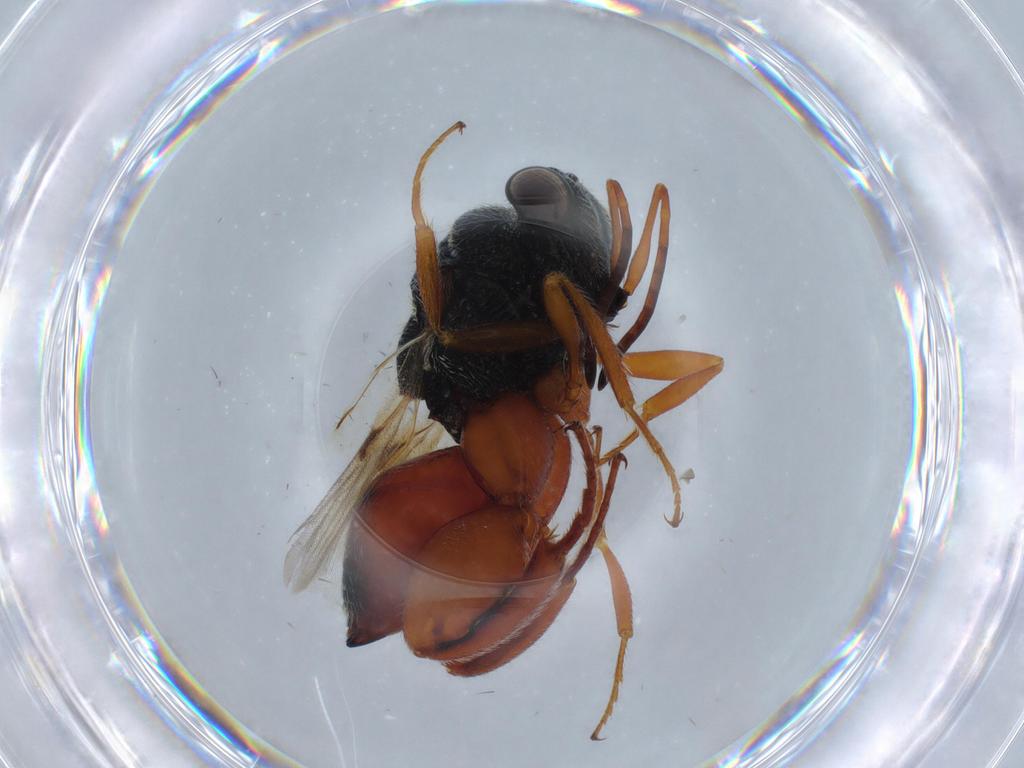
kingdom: Animalia
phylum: Arthropoda
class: Insecta
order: Hymenoptera
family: Chalcididae
